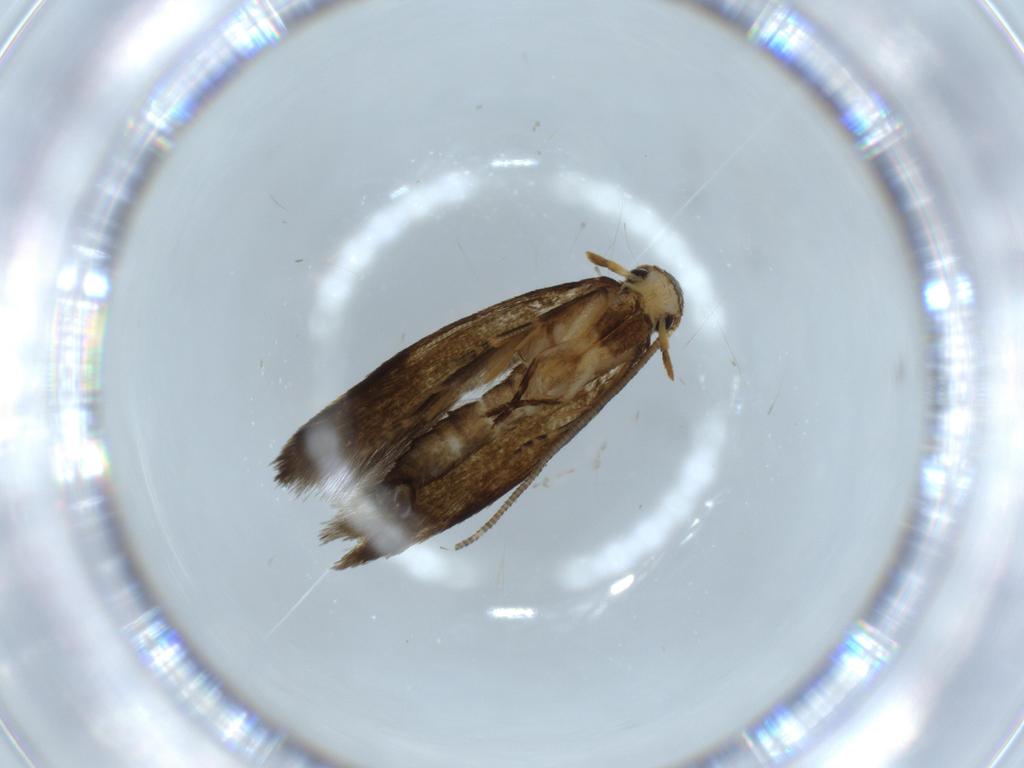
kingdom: Animalia
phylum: Arthropoda
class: Insecta
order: Lepidoptera
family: Tineidae
